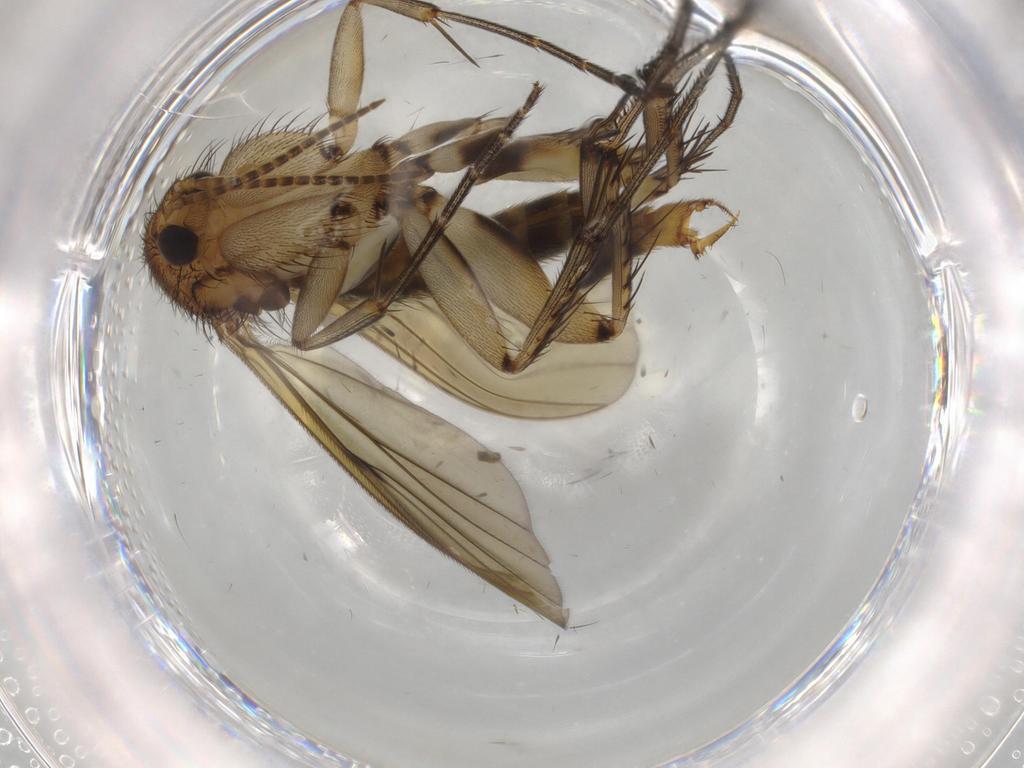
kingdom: Animalia
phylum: Arthropoda
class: Insecta
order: Diptera
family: Chironomidae
